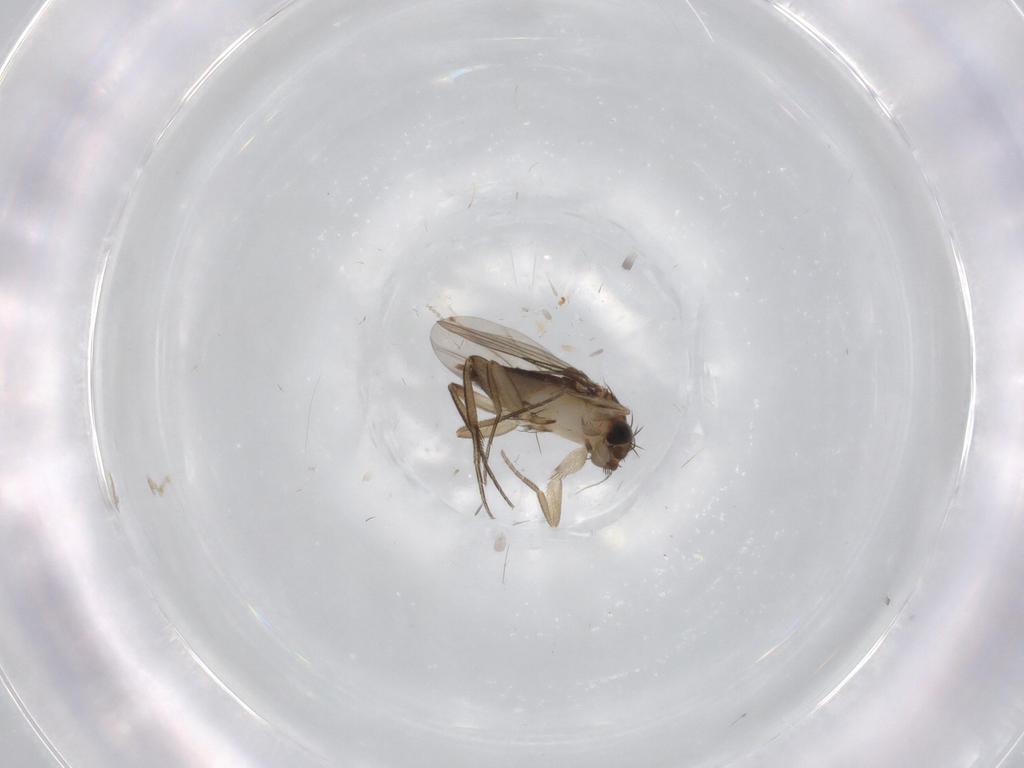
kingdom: Animalia
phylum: Arthropoda
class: Insecta
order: Diptera
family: Phoridae
